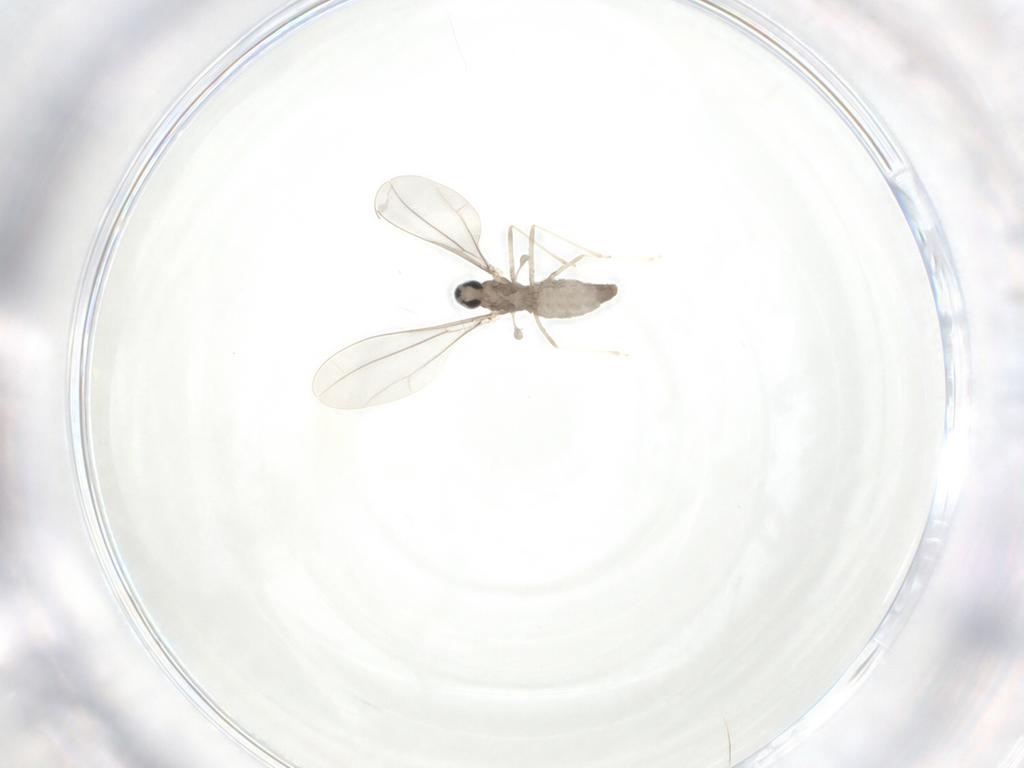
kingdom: Animalia
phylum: Arthropoda
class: Insecta
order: Diptera
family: Cecidomyiidae
